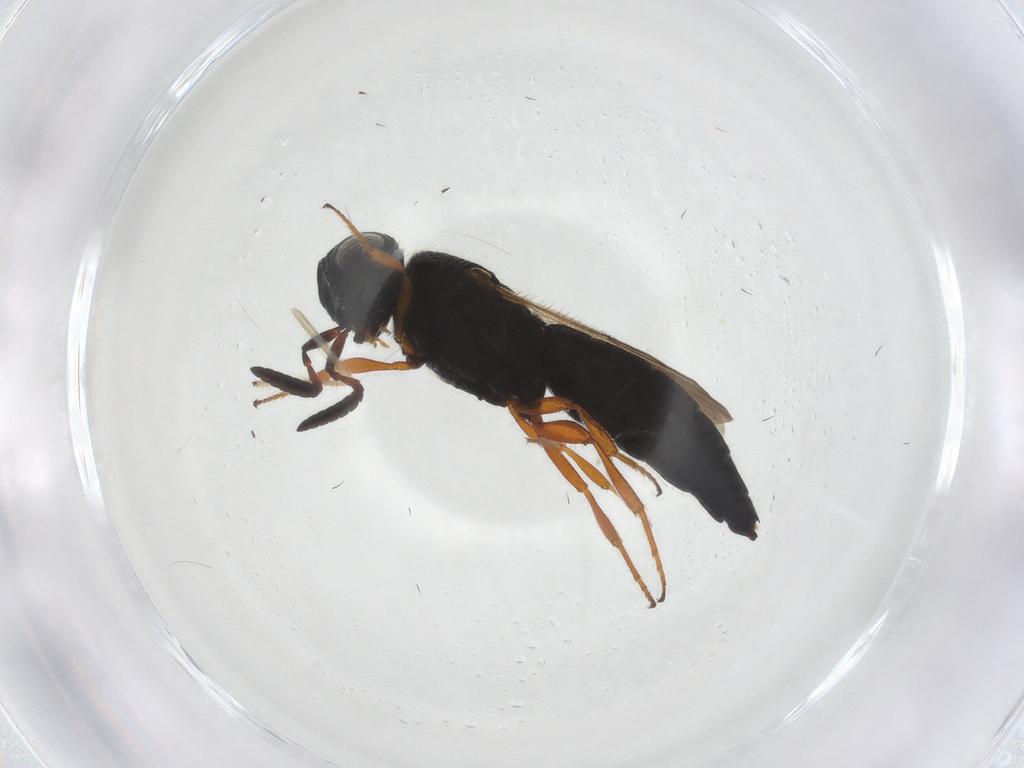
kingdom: Animalia
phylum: Arthropoda
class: Insecta
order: Hymenoptera
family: Scelionidae
